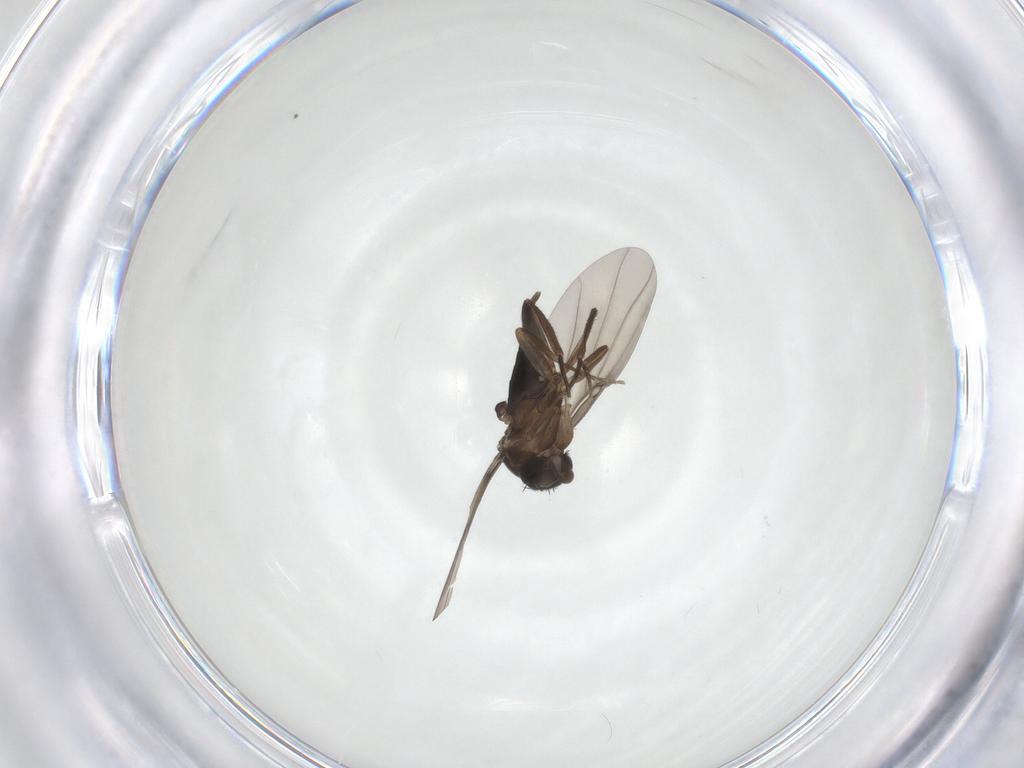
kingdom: Animalia
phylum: Arthropoda
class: Insecta
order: Diptera
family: Phoridae
